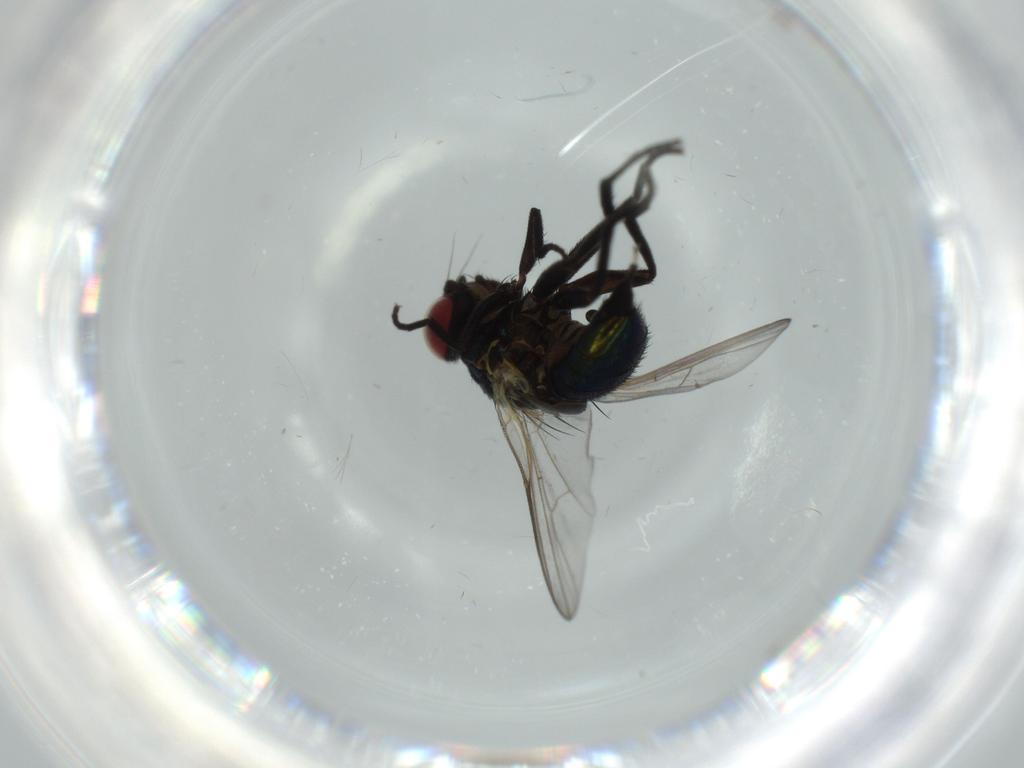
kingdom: Animalia
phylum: Arthropoda
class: Insecta
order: Diptera
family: Agromyzidae
